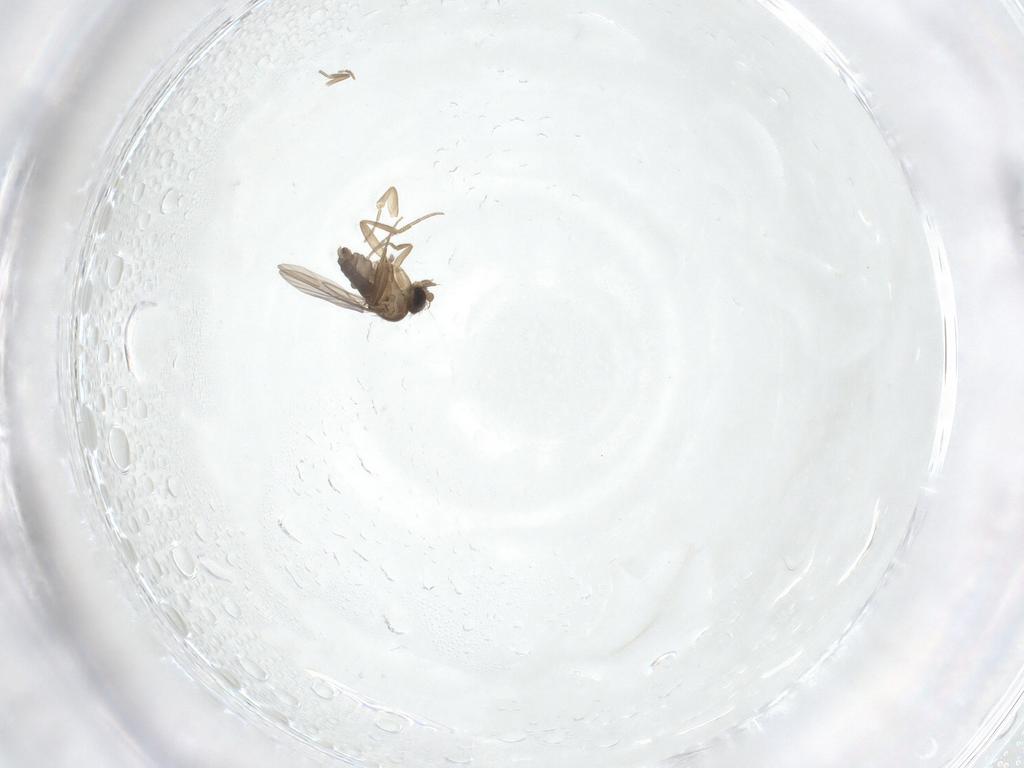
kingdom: Animalia
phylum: Arthropoda
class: Insecta
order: Diptera
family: Phoridae
